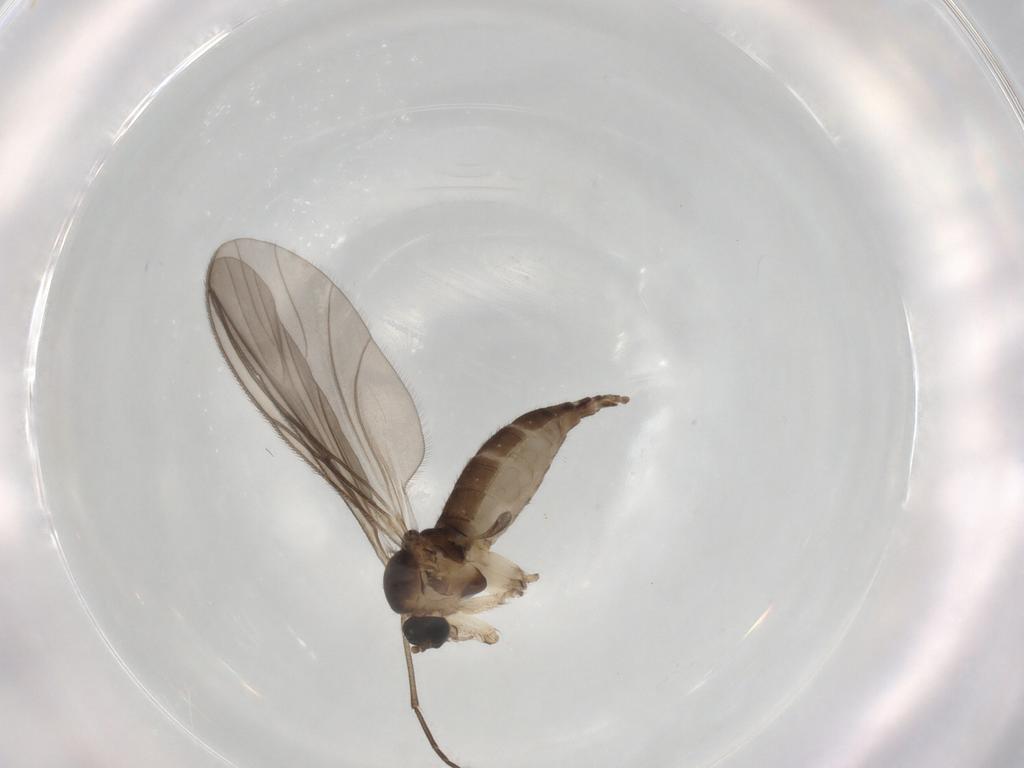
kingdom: Animalia
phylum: Arthropoda
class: Insecta
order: Diptera
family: Sciaridae
